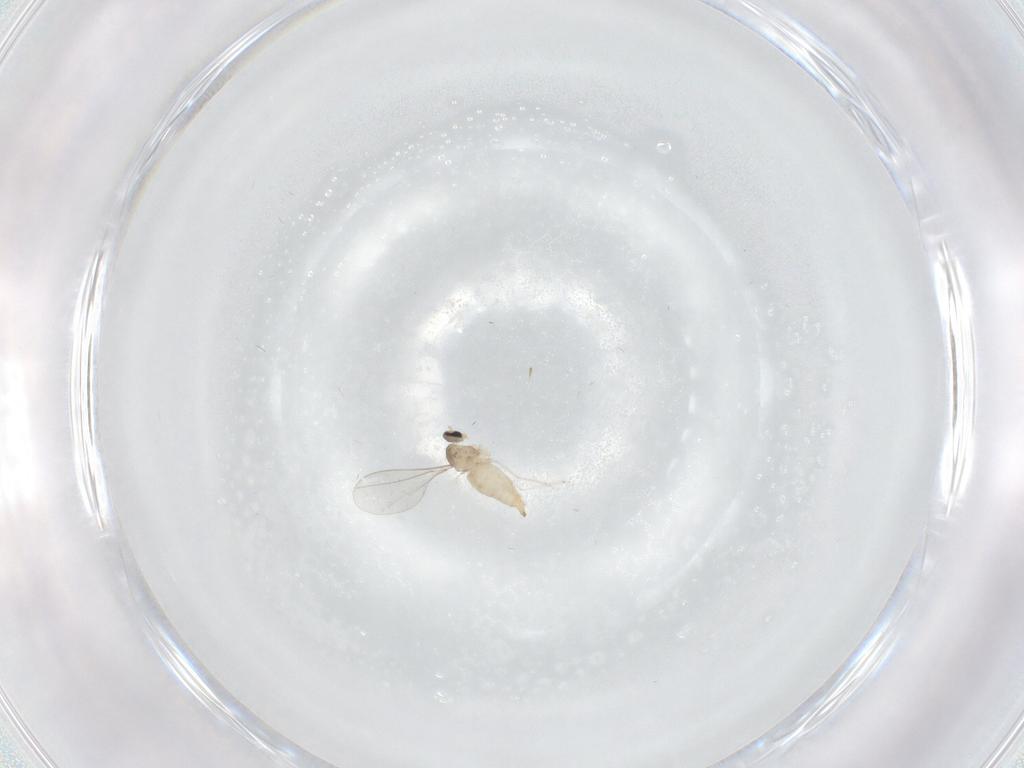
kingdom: Animalia
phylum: Arthropoda
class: Insecta
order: Diptera
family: Cecidomyiidae
